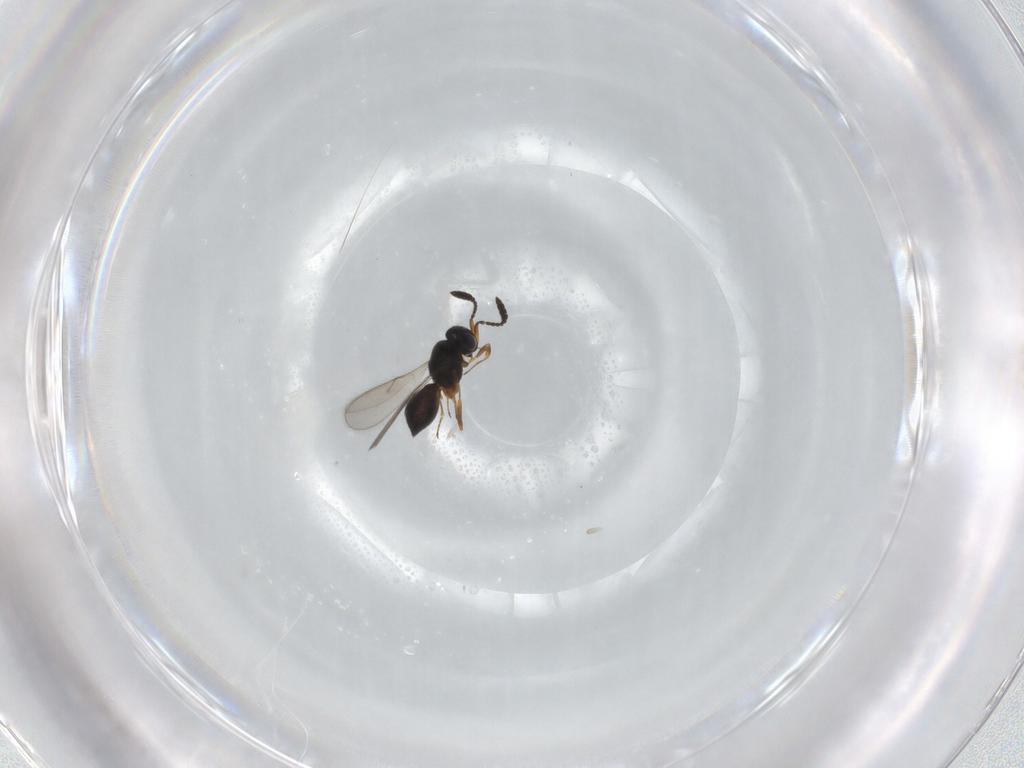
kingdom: Animalia
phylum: Arthropoda
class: Insecta
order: Hymenoptera
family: Scelionidae
